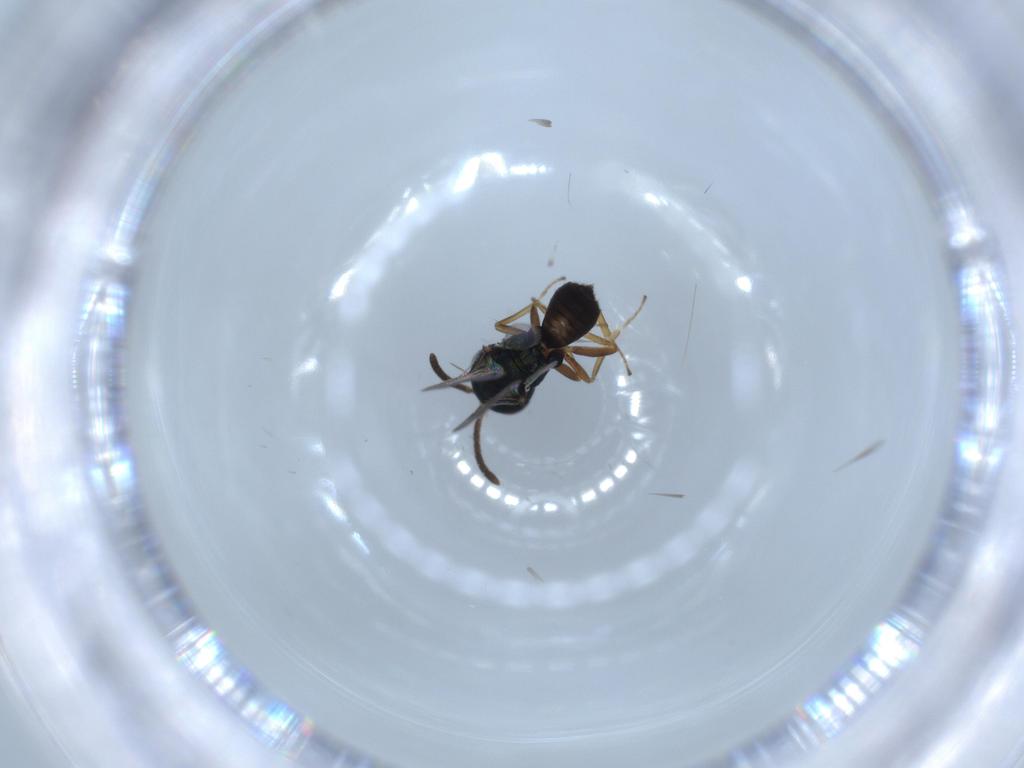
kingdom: Animalia
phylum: Arthropoda
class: Insecta
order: Hymenoptera
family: Pteromalidae
